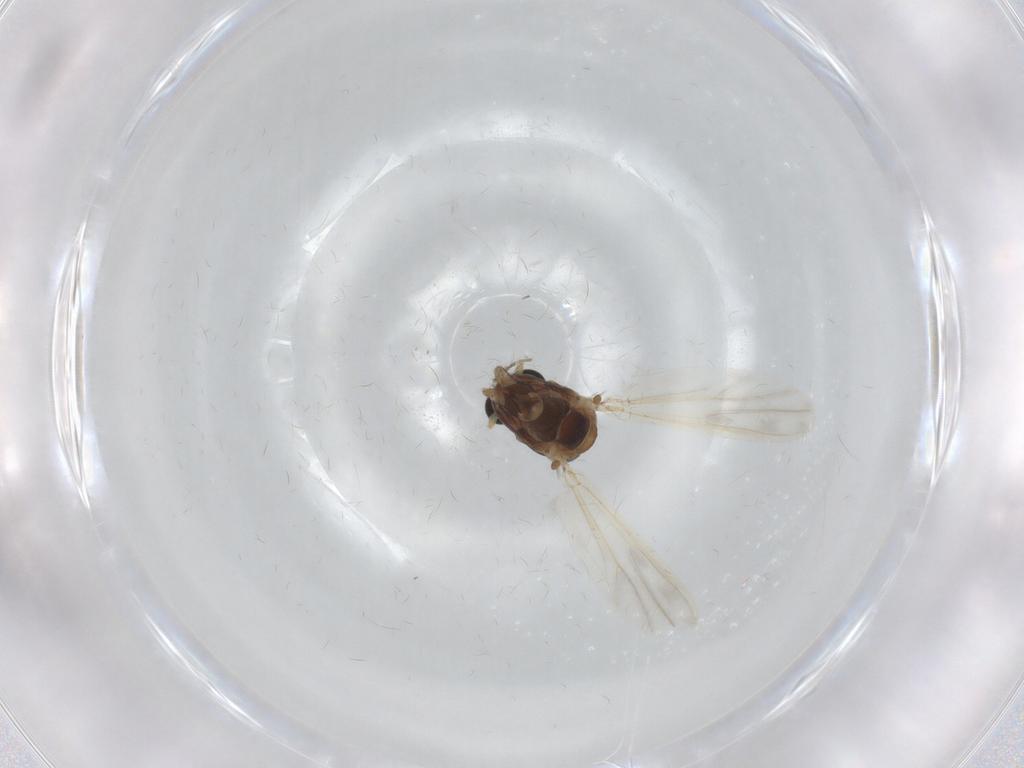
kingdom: Animalia
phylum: Arthropoda
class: Insecta
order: Diptera
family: Chironomidae
